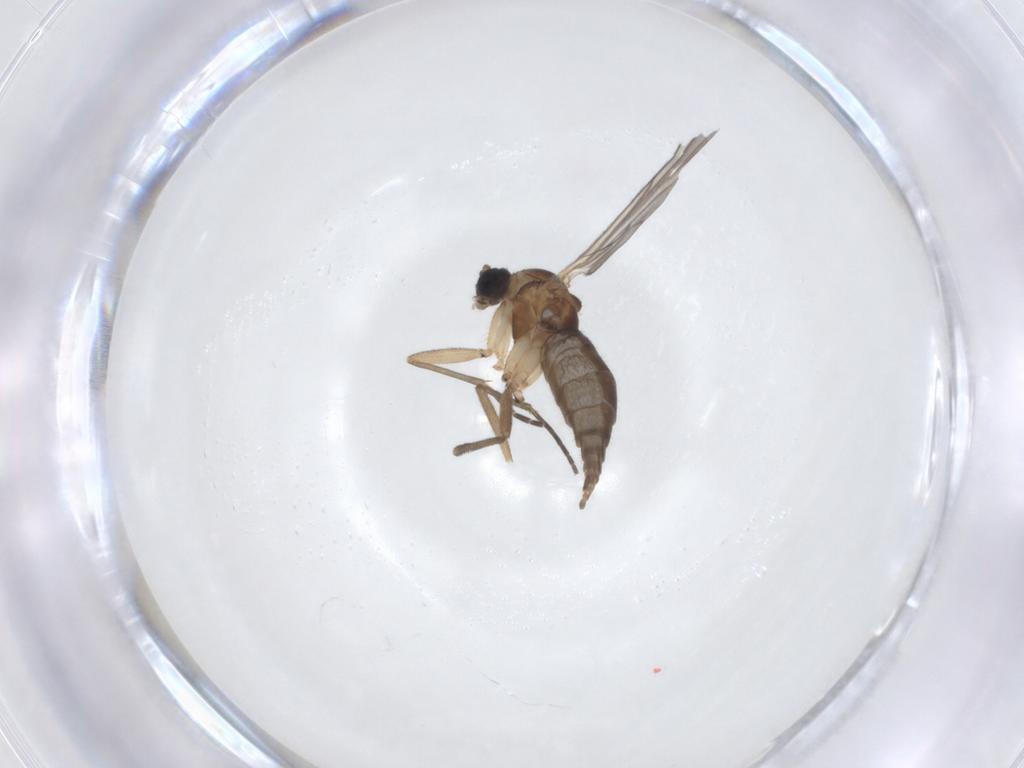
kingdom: Animalia
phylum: Arthropoda
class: Insecta
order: Diptera
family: Sciaridae
